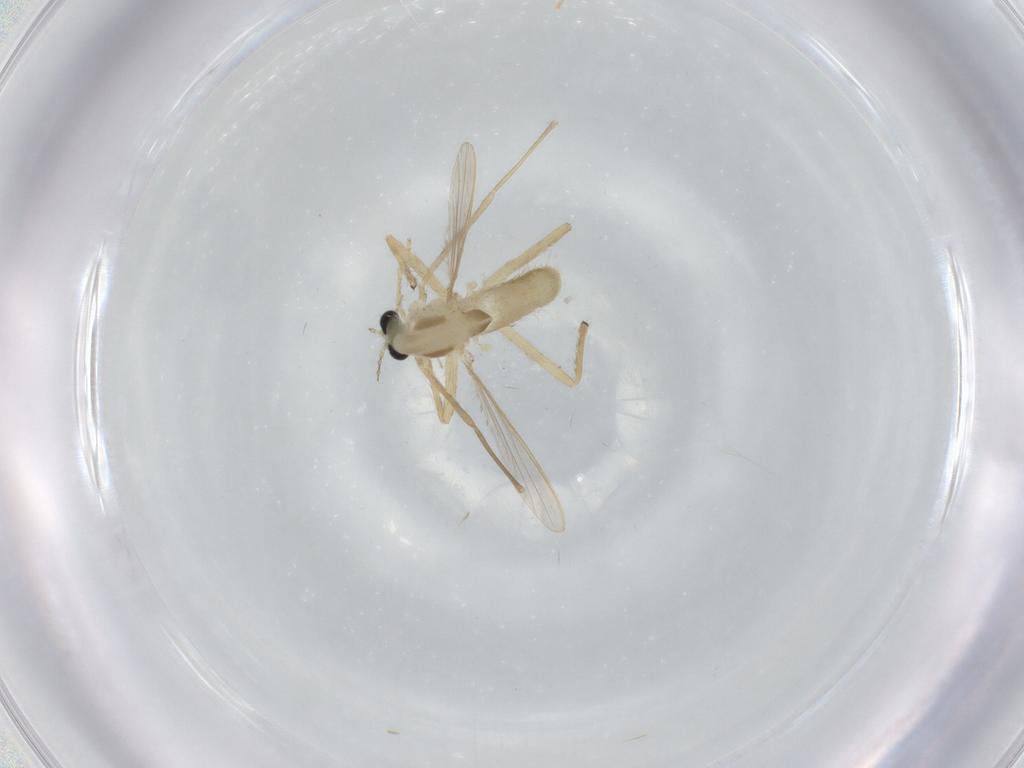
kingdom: Animalia
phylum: Arthropoda
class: Insecta
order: Diptera
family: Chironomidae
